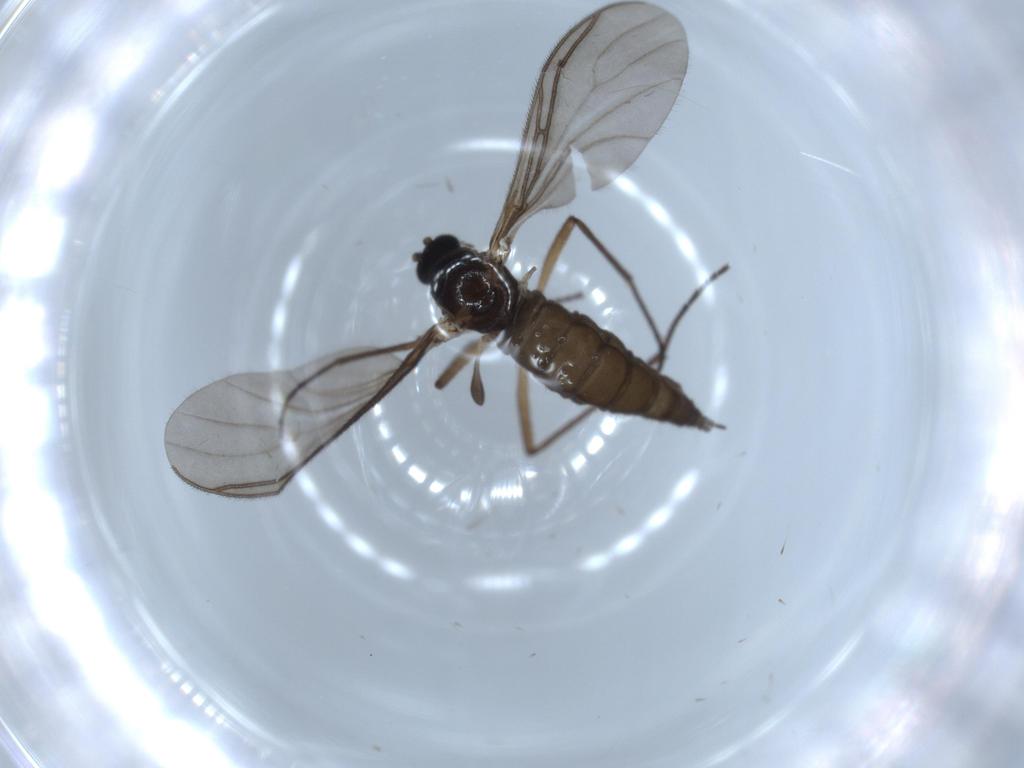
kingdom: Animalia
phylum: Arthropoda
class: Insecta
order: Diptera
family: Sciaridae
